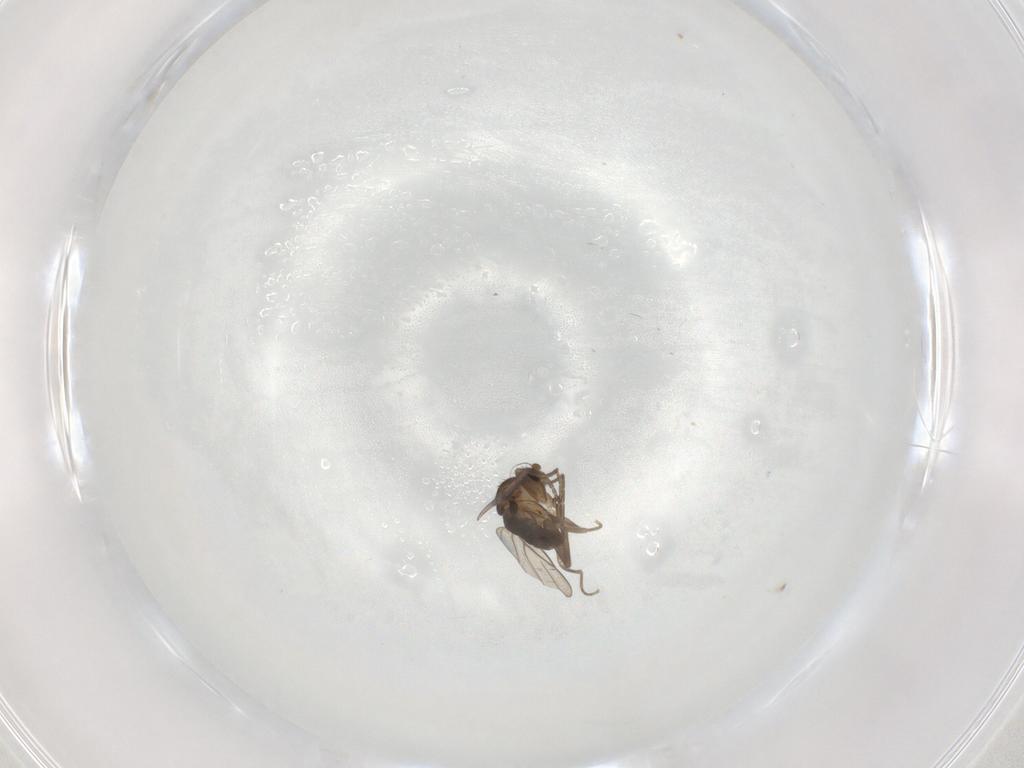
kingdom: Animalia
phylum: Arthropoda
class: Insecta
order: Diptera
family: Sciaridae
